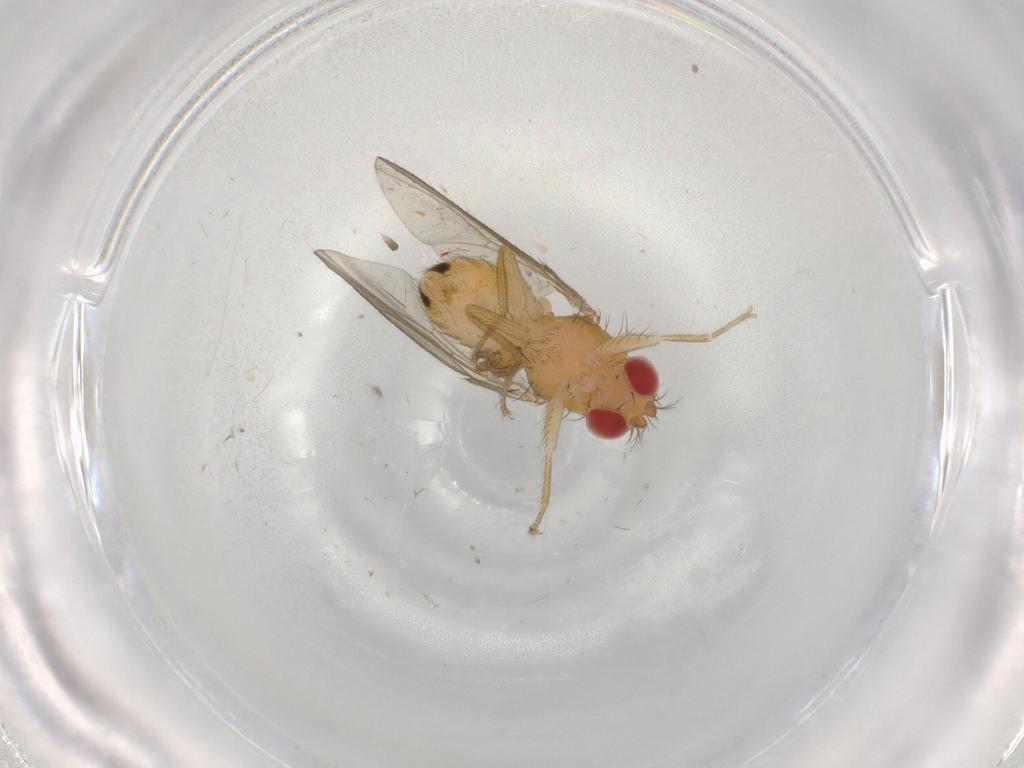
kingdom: Animalia
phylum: Arthropoda
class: Insecta
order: Diptera
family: Drosophilidae
